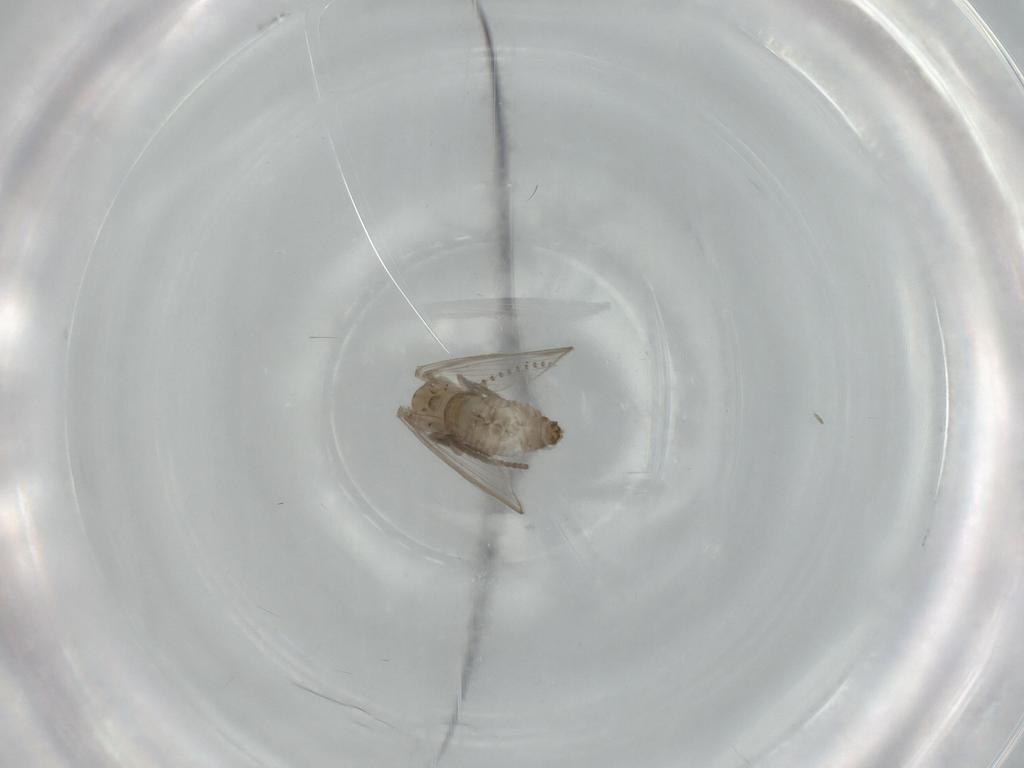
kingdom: Animalia
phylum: Arthropoda
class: Insecta
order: Diptera
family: Psychodidae
